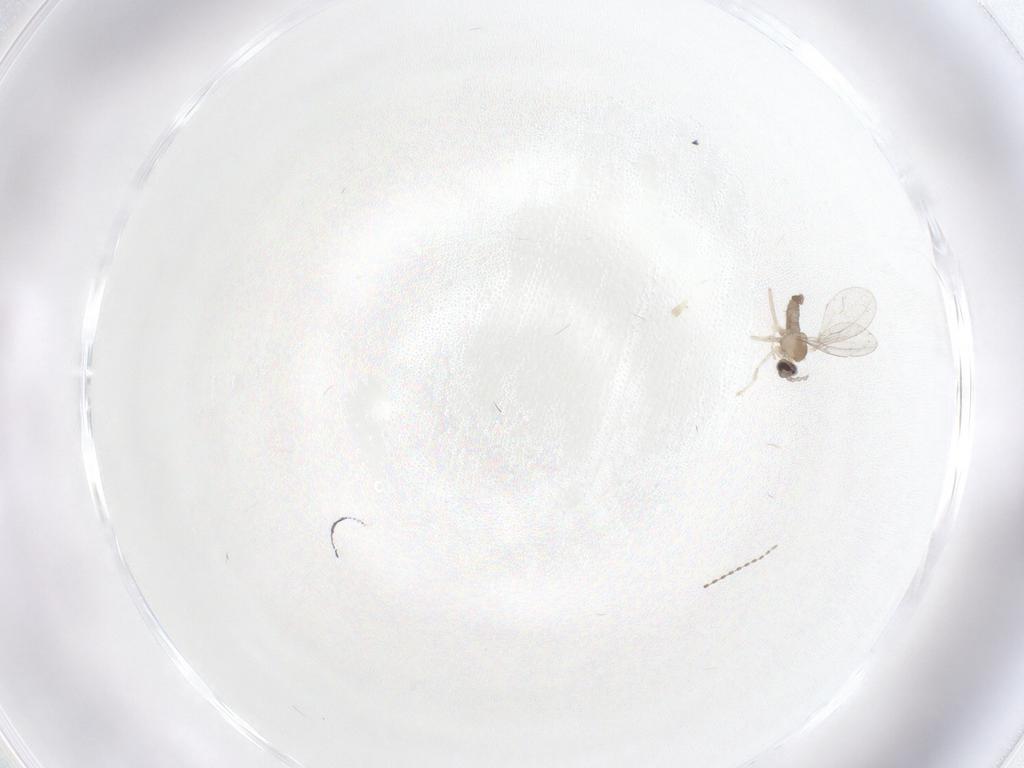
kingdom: Animalia
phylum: Arthropoda
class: Insecta
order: Diptera
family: Cecidomyiidae
